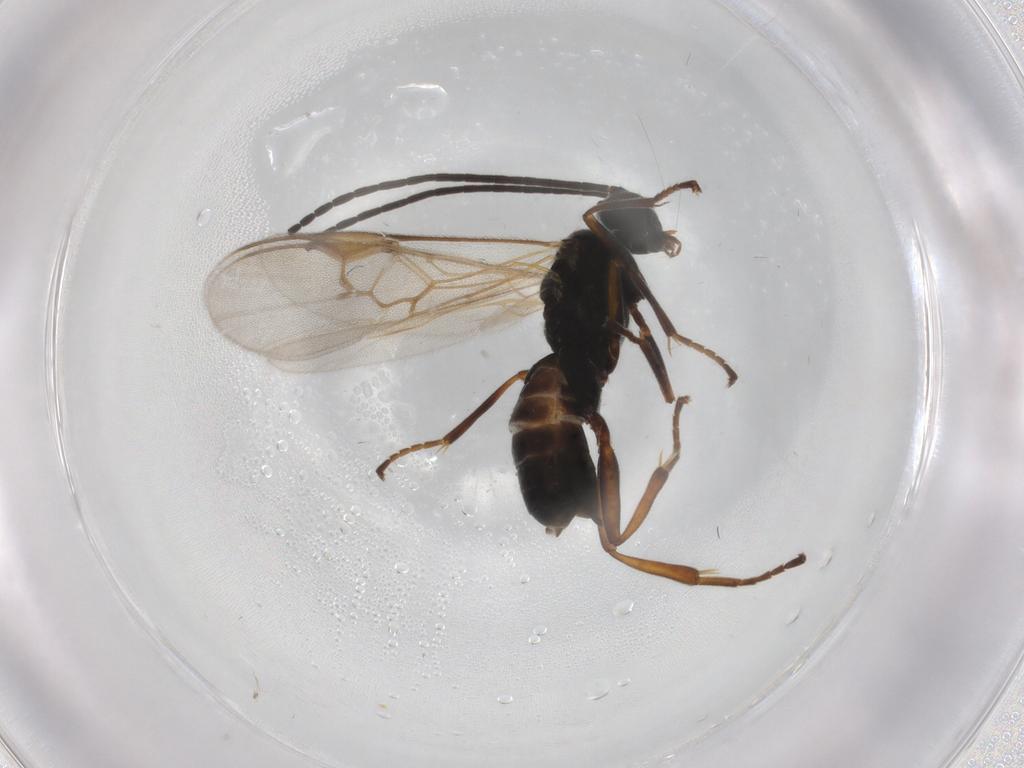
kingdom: Animalia
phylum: Arthropoda
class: Insecta
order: Hymenoptera
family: Braconidae
